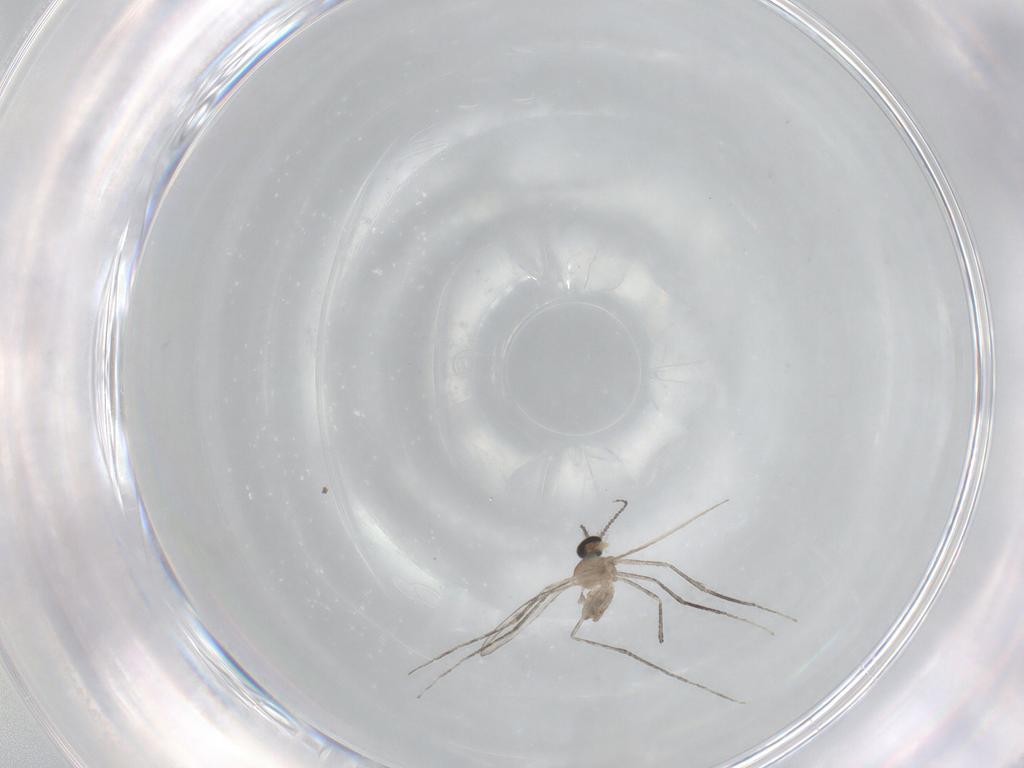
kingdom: Animalia
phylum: Arthropoda
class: Insecta
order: Diptera
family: Cecidomyiidae
